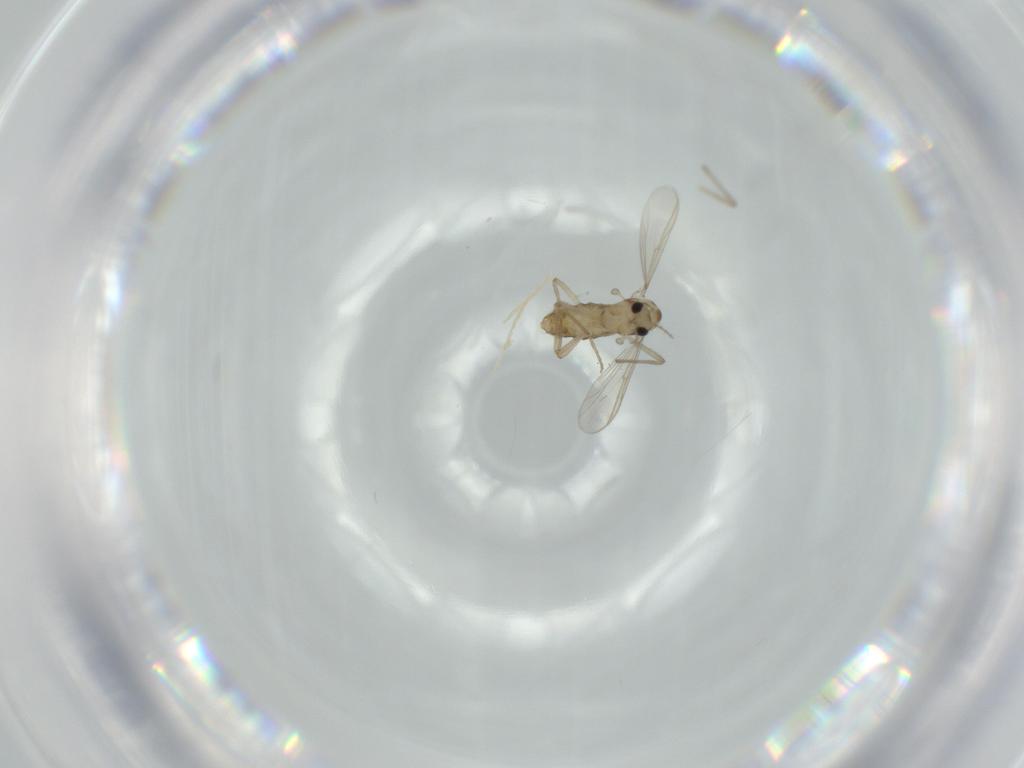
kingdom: Animalia
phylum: Arthropoda
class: Insecta
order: Diptera
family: Chironomidae
